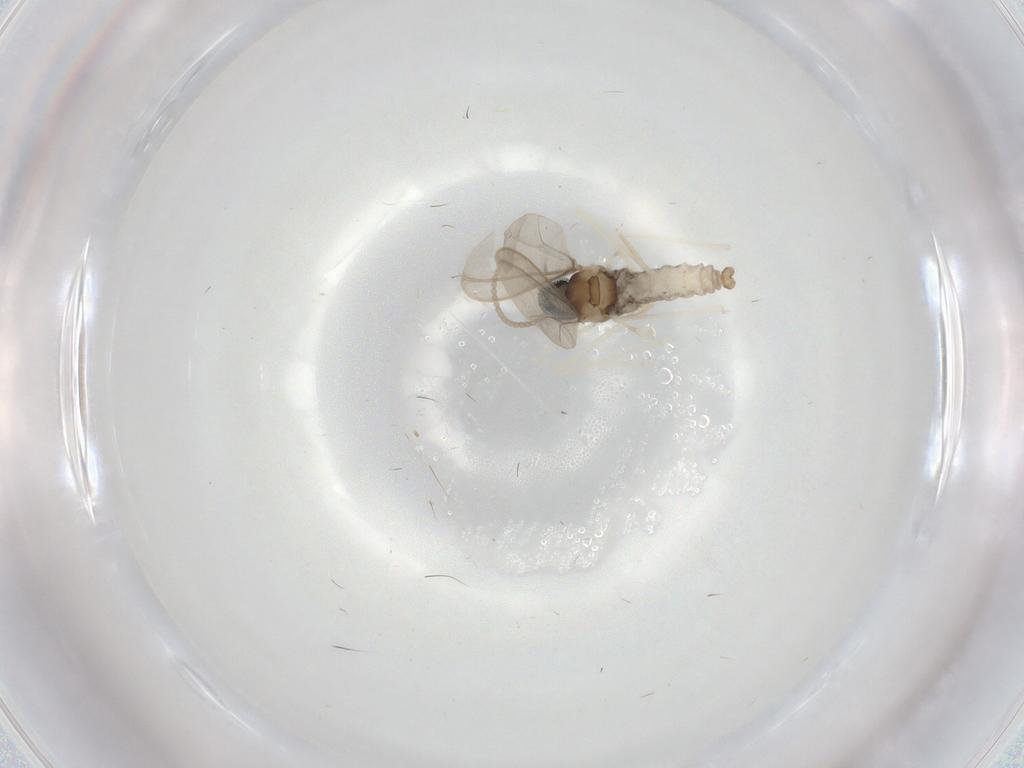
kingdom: Animalia
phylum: Arthropoda
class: Insecta
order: Diptera
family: Cecidomyiidae
